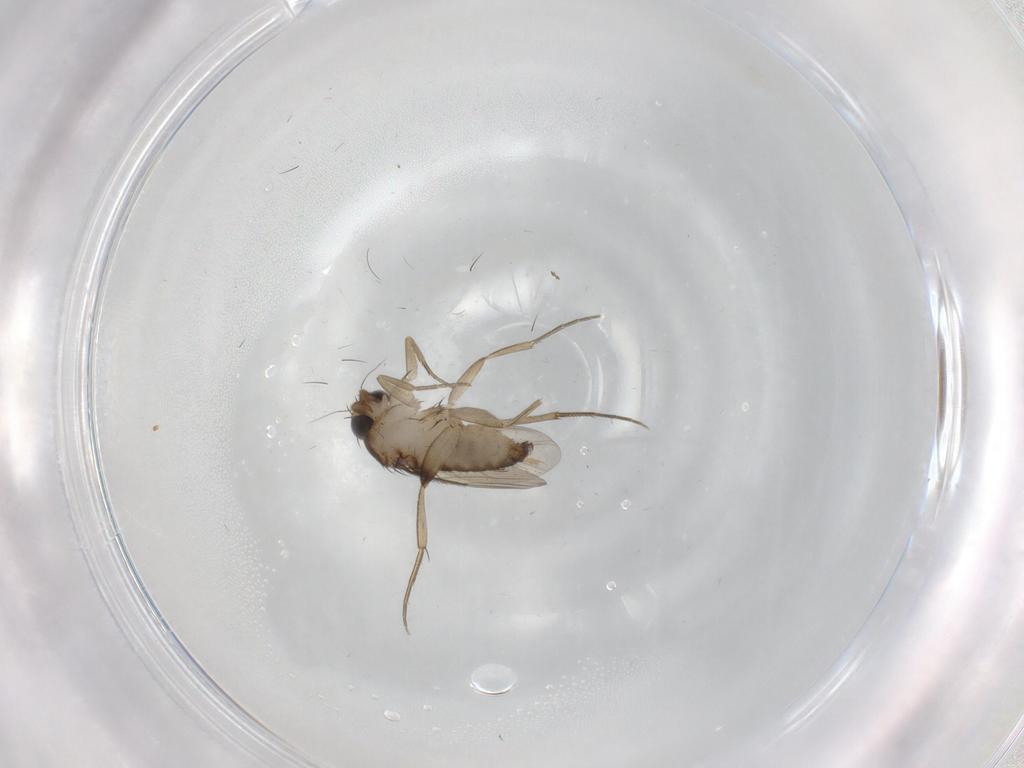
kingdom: Animalia
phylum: Arthropoda
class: Insecta
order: Diptera
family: Phoridae
